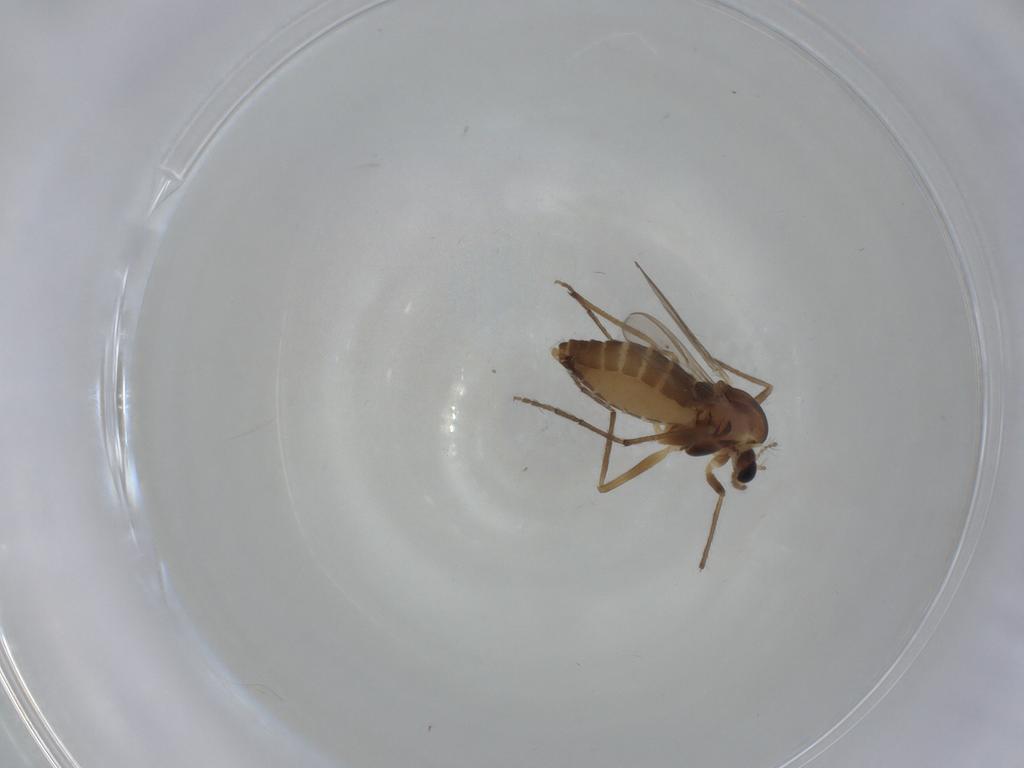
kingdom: Animalia
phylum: Arthropoda
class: Insecta
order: Diptera
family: Chironomidae
